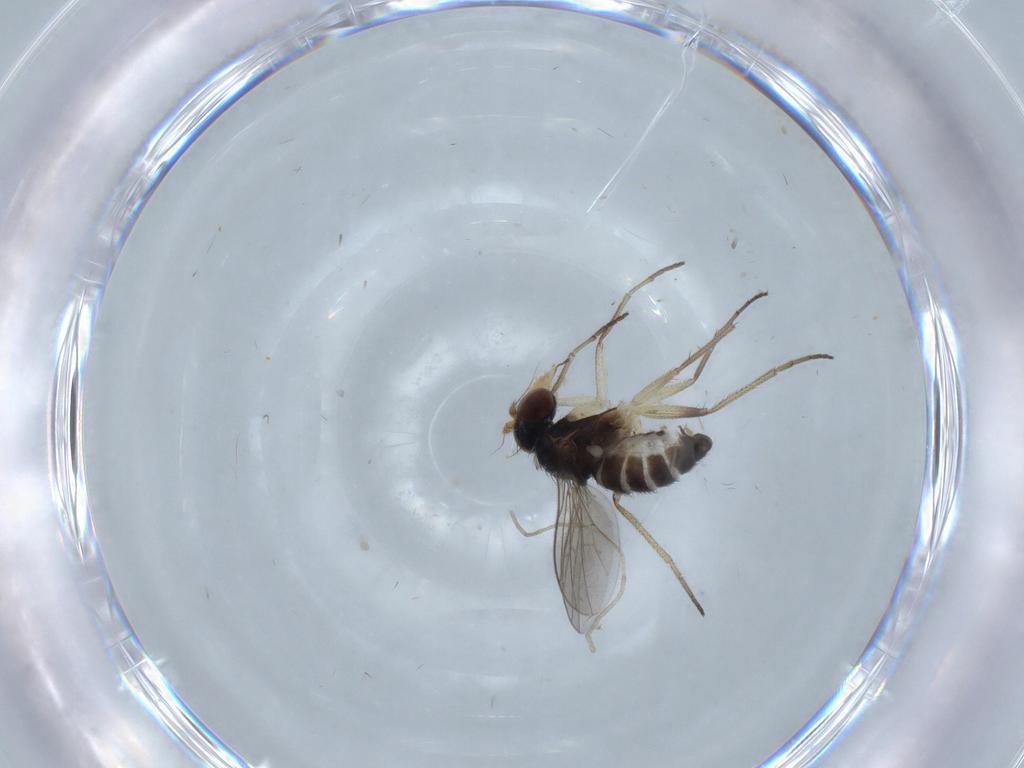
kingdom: Animalia
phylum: Arthropoda
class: Insecta
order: Diptera
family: Dolichopodidae
